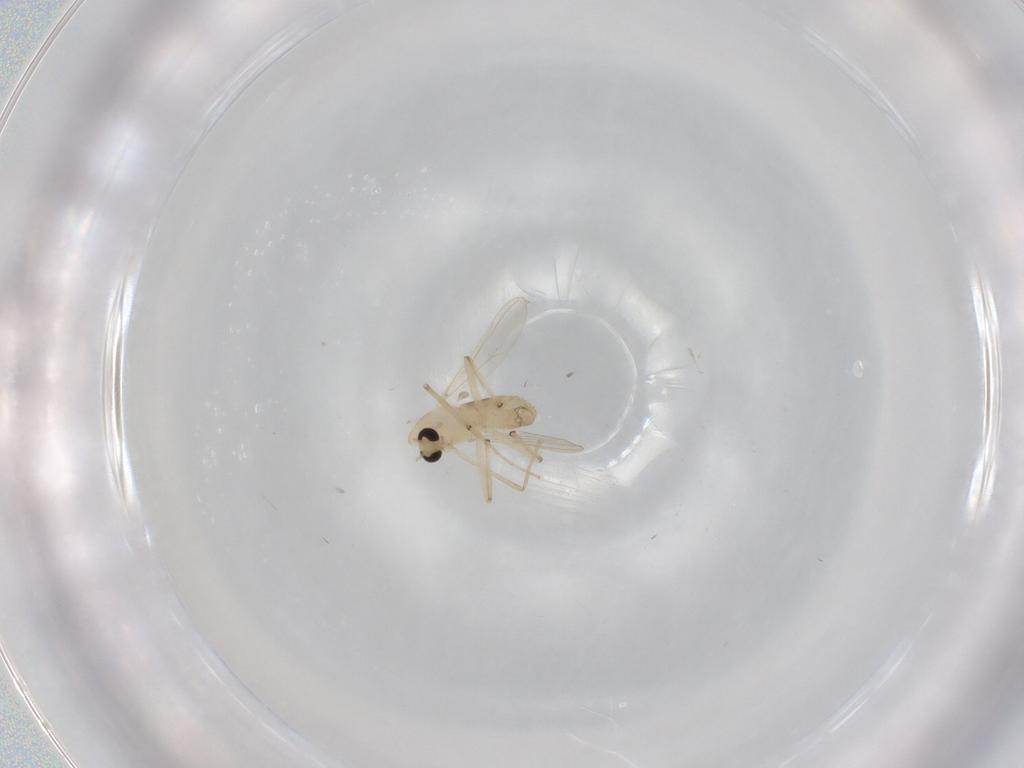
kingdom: Animalia
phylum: Arthropoda
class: Insecta
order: Diptera
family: Chironomidae
